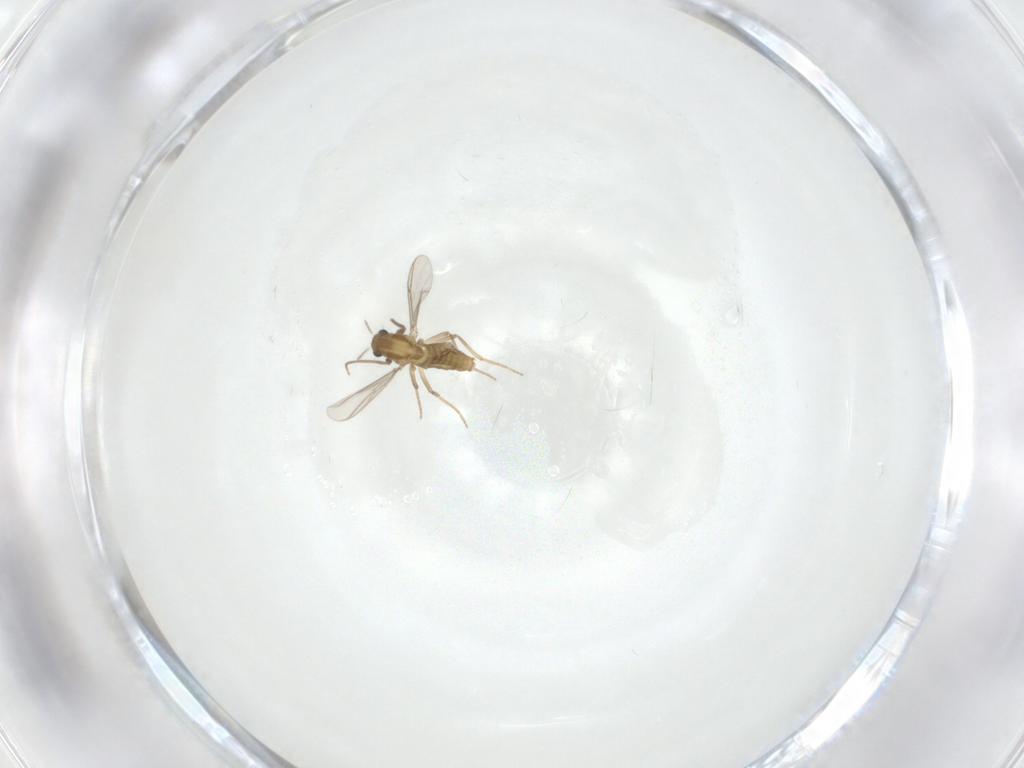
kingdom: Animalia
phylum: Arthropoda
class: Insecta
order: Diptera
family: Chironomidae
